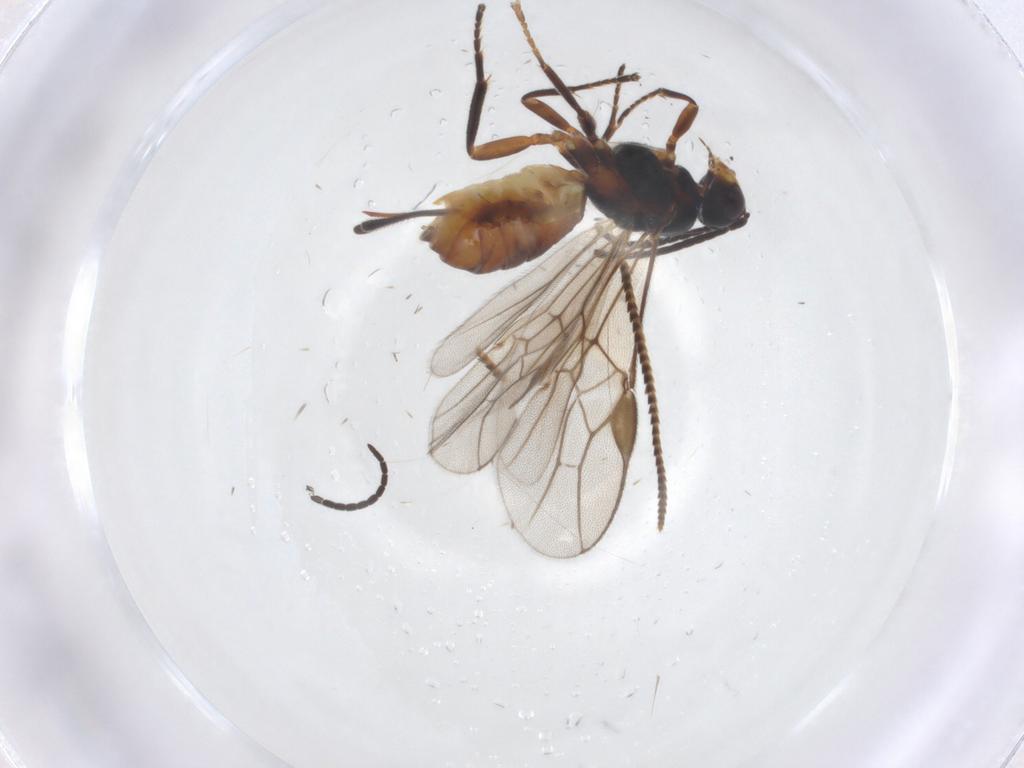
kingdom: Animalia
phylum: Arthropoda
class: Insecta
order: Hymenoptera
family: Braconidae
